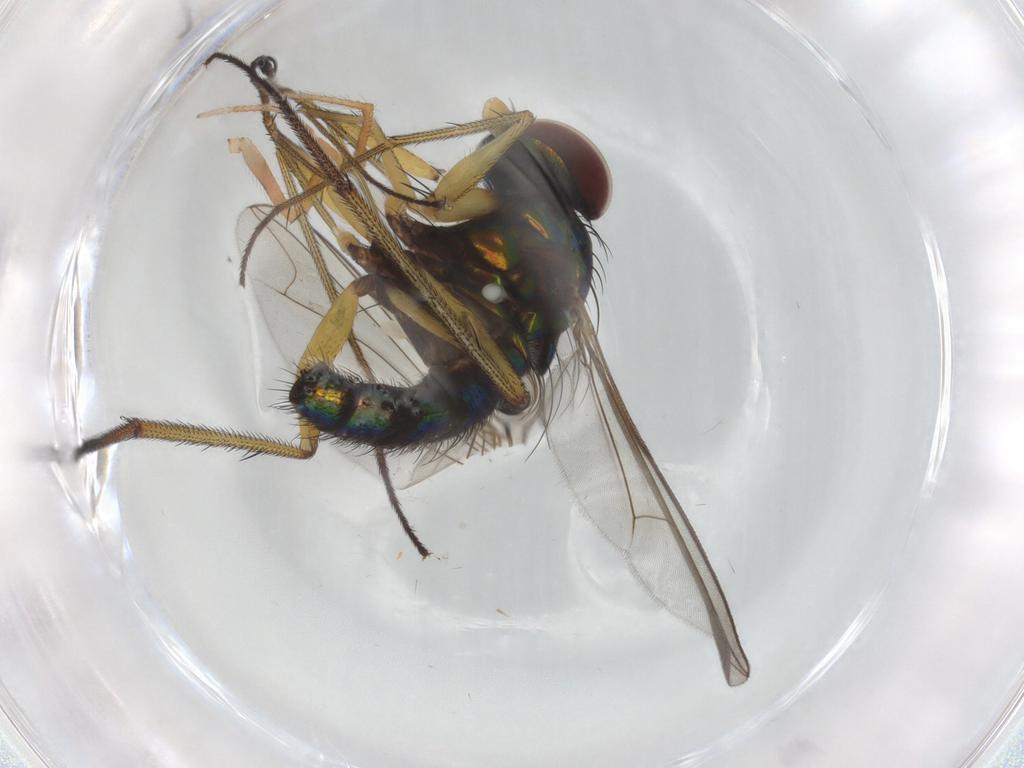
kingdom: Animalia
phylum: Arthropoda
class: Insecta
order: Diptera
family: Dolichopodidae
